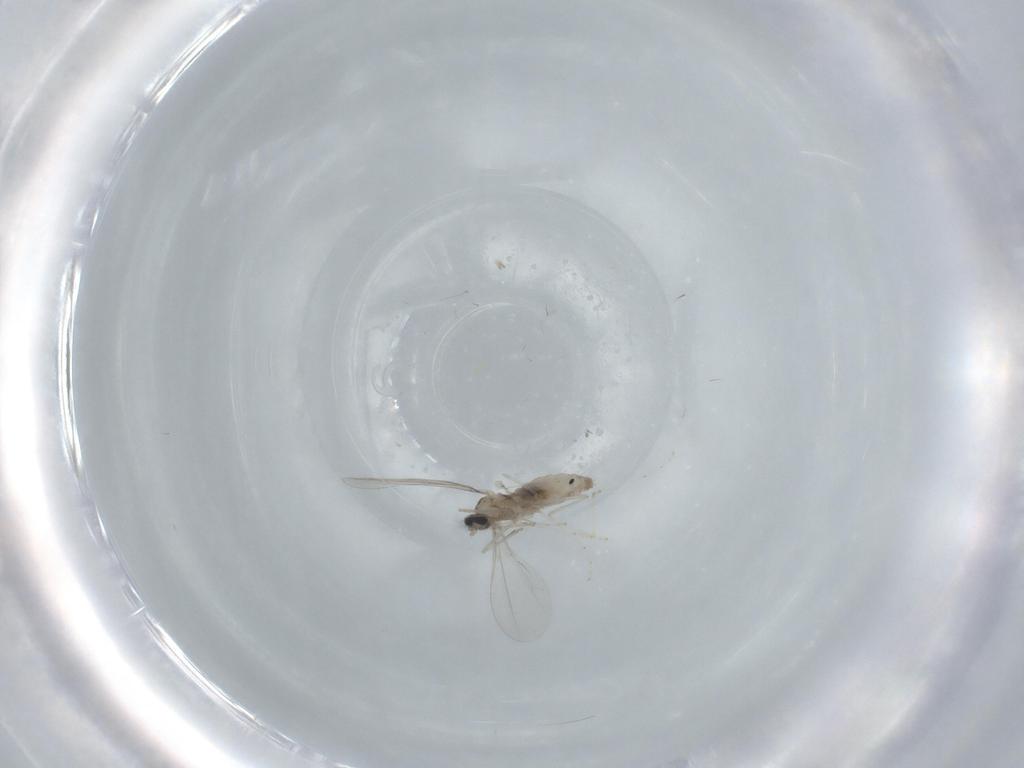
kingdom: Animalia
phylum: Arthropoda
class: Insecta
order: Diptera
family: Cecidomyiidae
